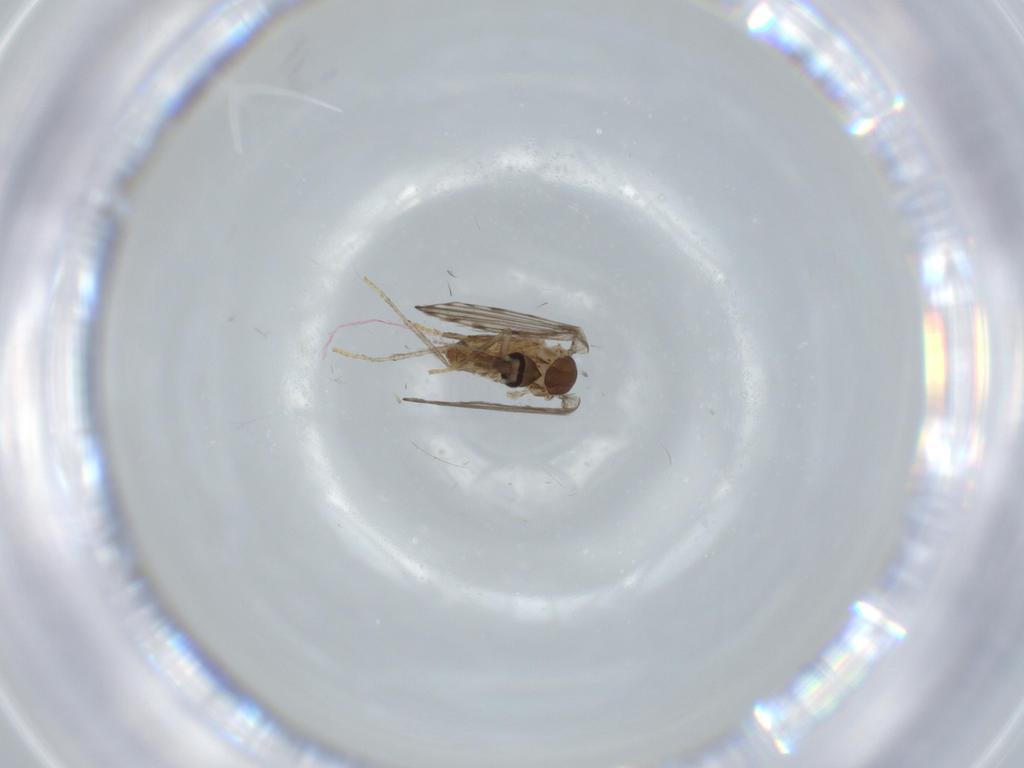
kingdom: Animalia
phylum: Arthropoda
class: Insecta
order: Diptera
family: Psychodidae
